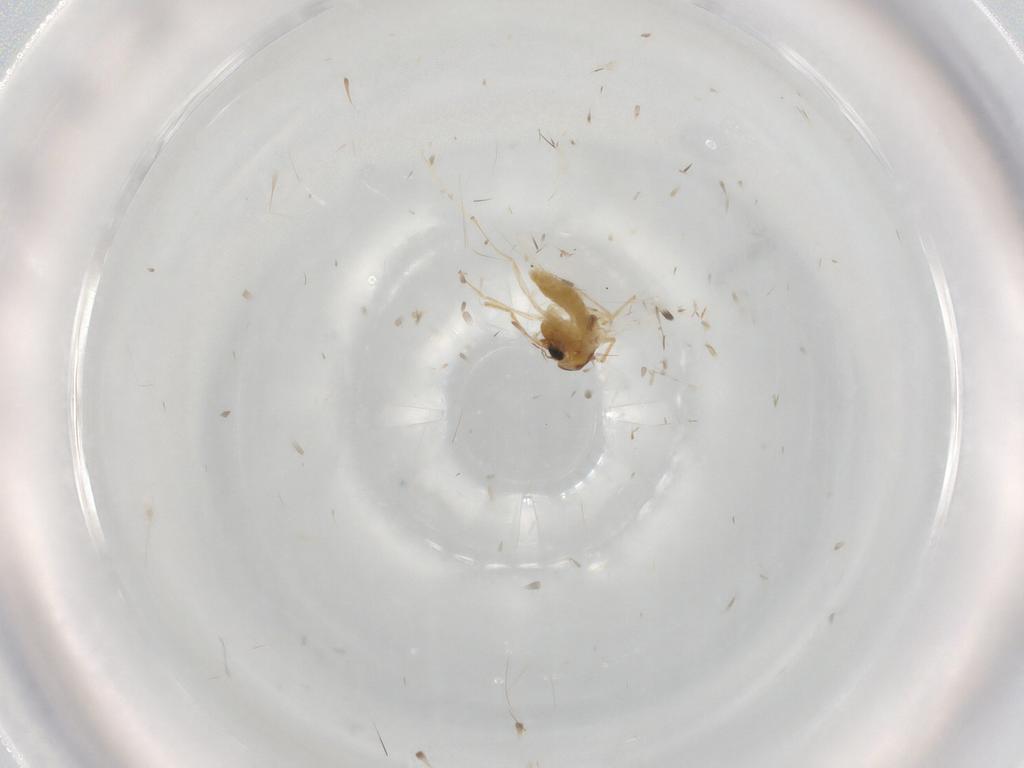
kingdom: Animalia
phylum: Arthropoda
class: Insecta
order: Diptera
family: Chironomidae
